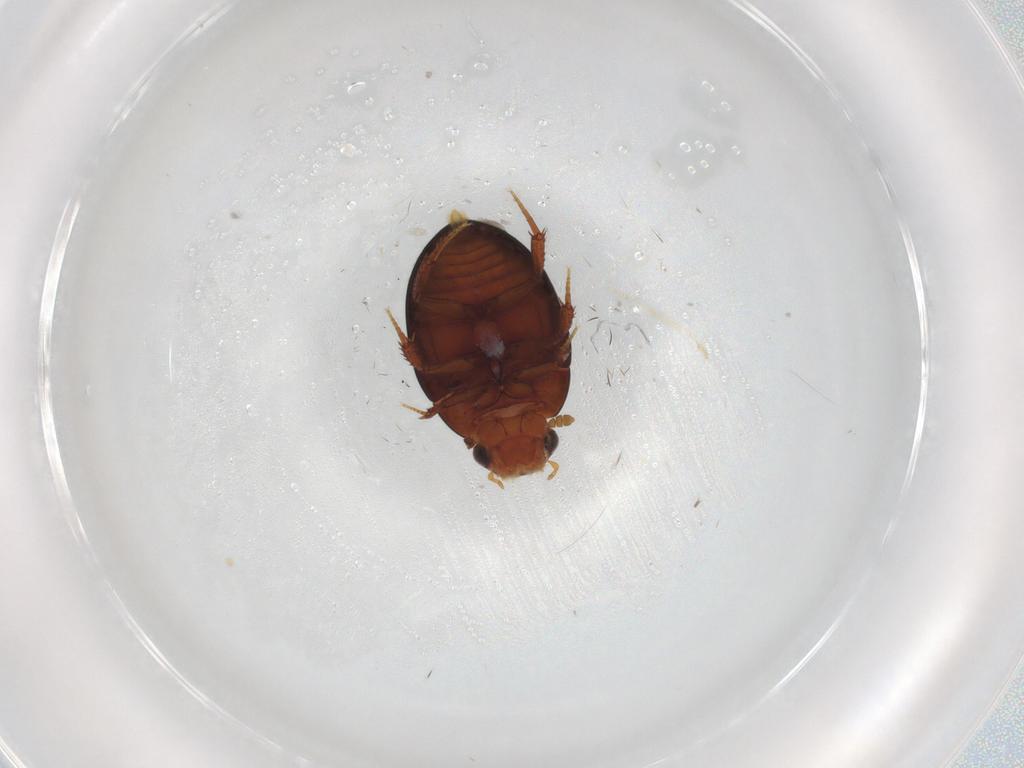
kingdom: Animalia
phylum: Arthropoda
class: Insecta
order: Coleoptera
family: Hydrophilidae
